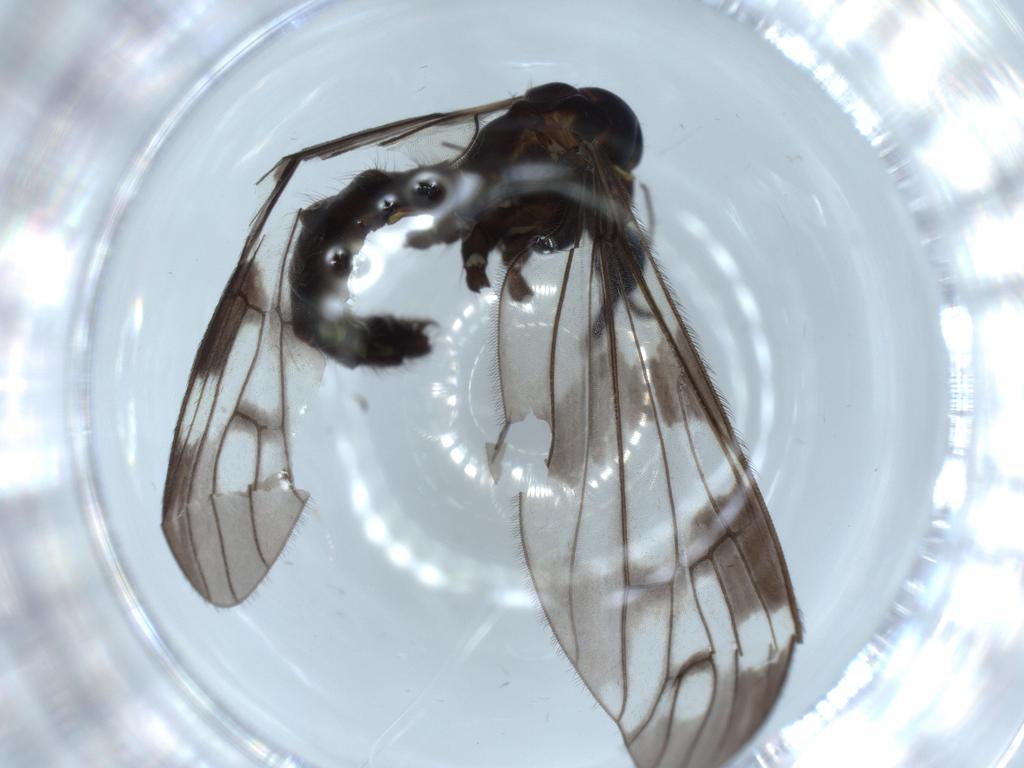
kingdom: Animalia
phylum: Arthropoda
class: Insecta
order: Diptera
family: Limoniidae
